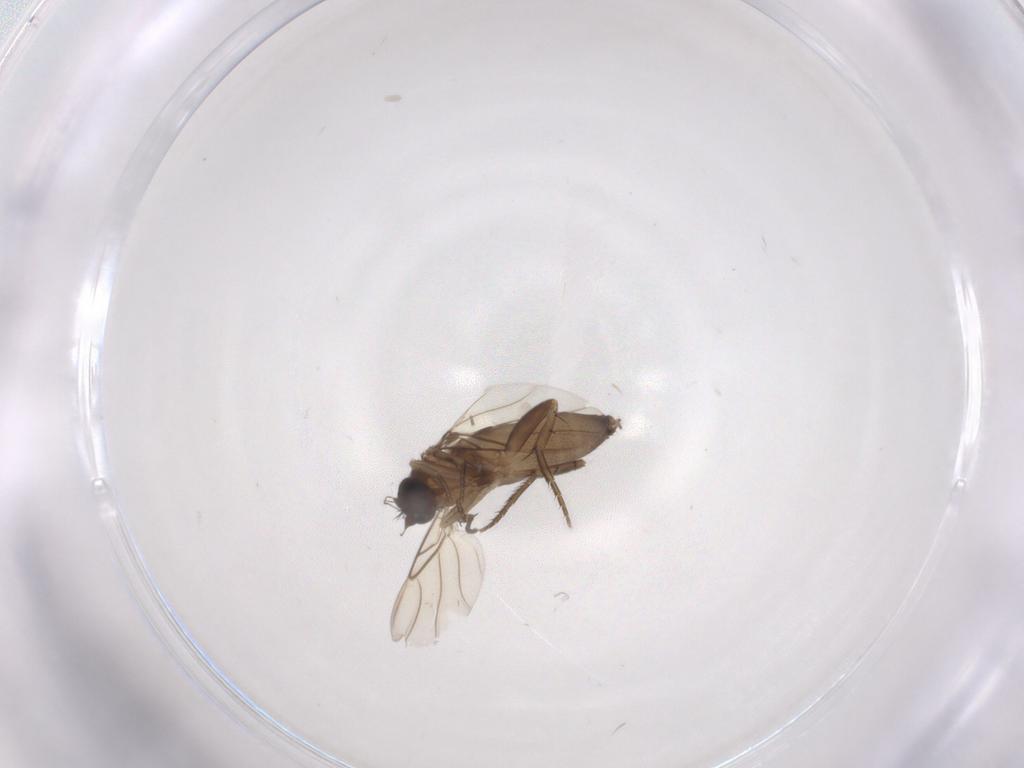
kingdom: Animalia
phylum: Arthropoda
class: Insecta
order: Diptera
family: Phoridae
